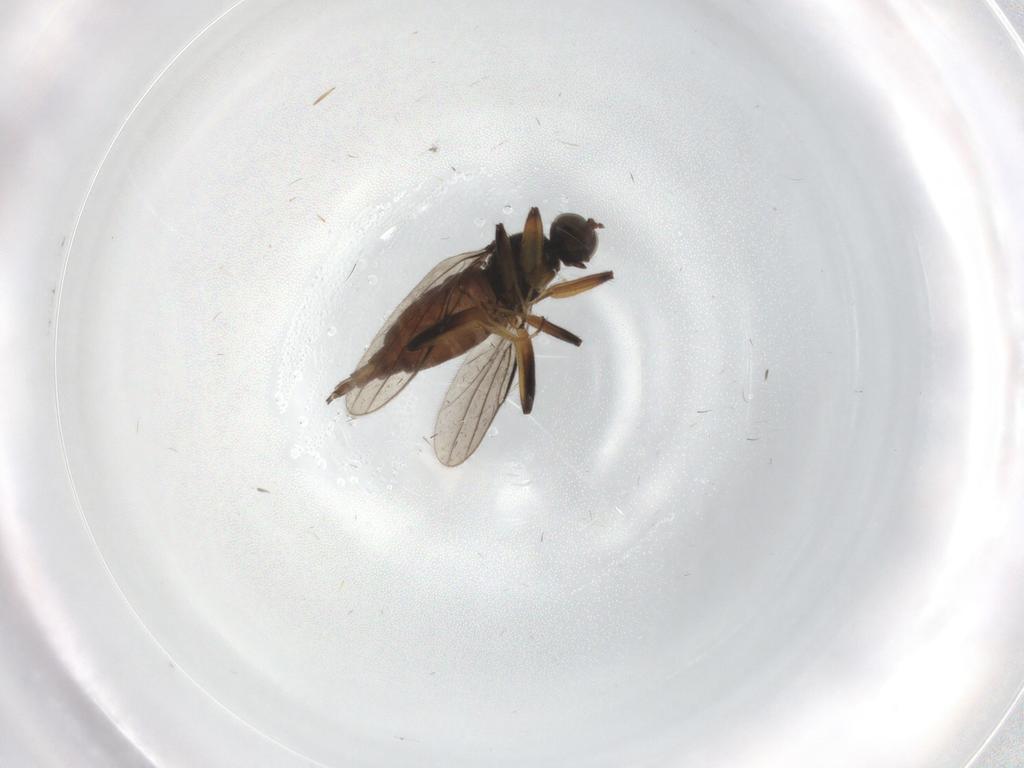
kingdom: Animalia
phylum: Arthropoda
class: Insecta
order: Diptera
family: Hybotidae
